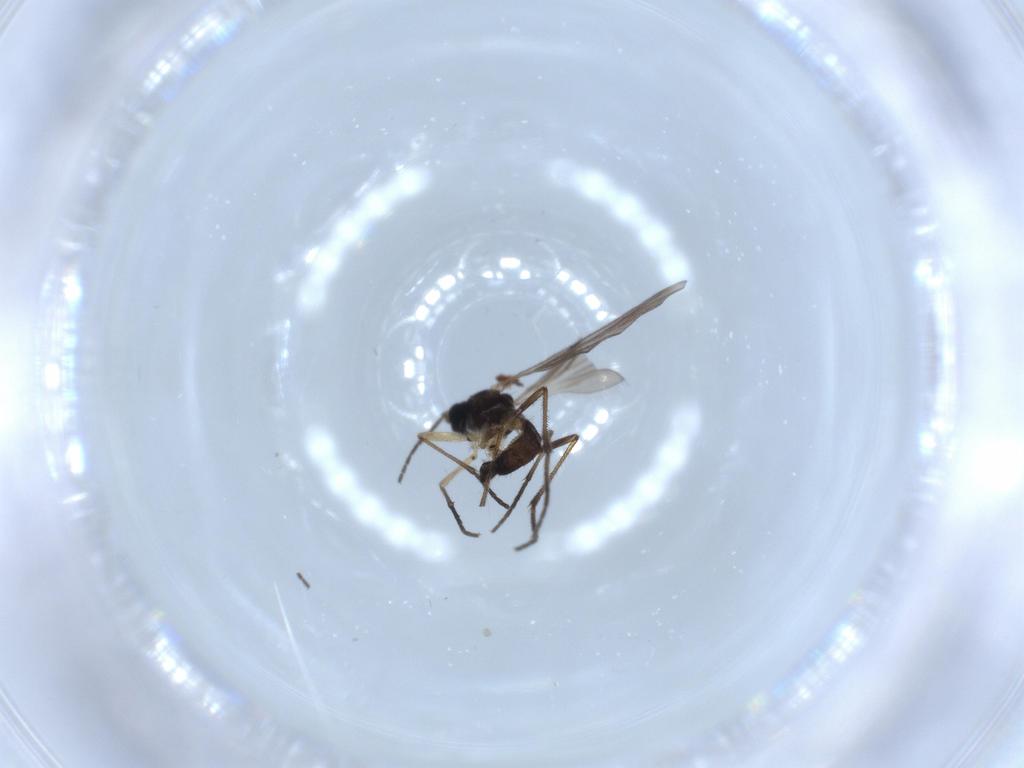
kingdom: Animalia
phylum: Arthropoda
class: Insecta
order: Diptera
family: Sciaridae
